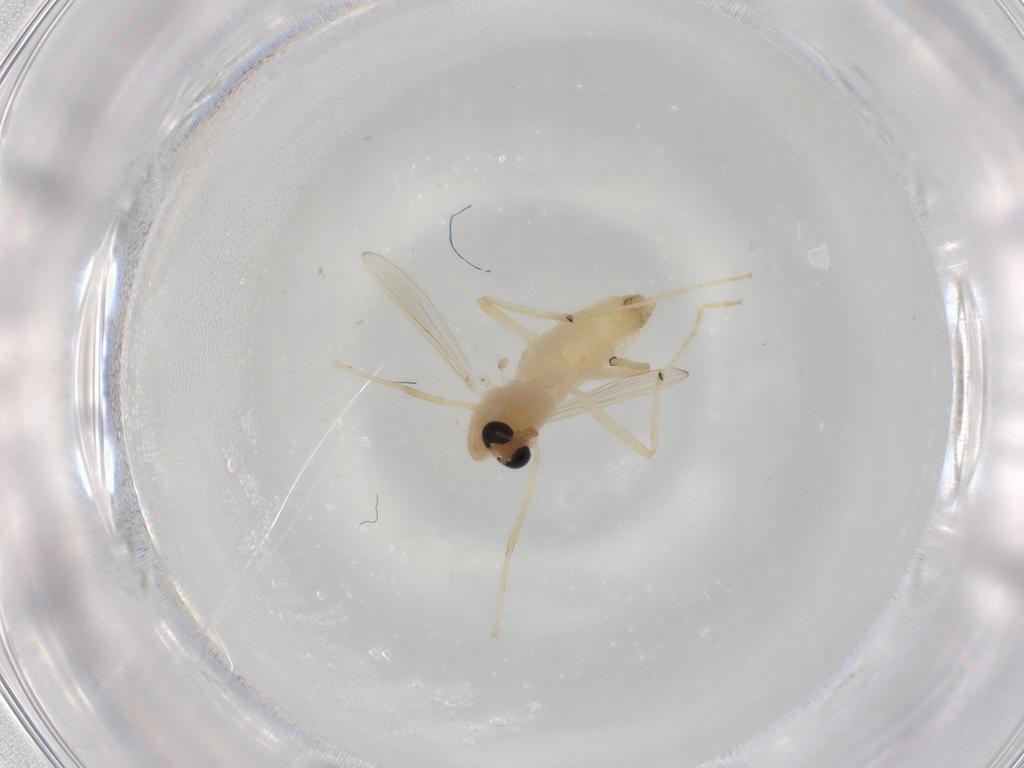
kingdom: Animalia
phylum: Arthropoda
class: Insecta
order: Diptera
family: Chironomidae
